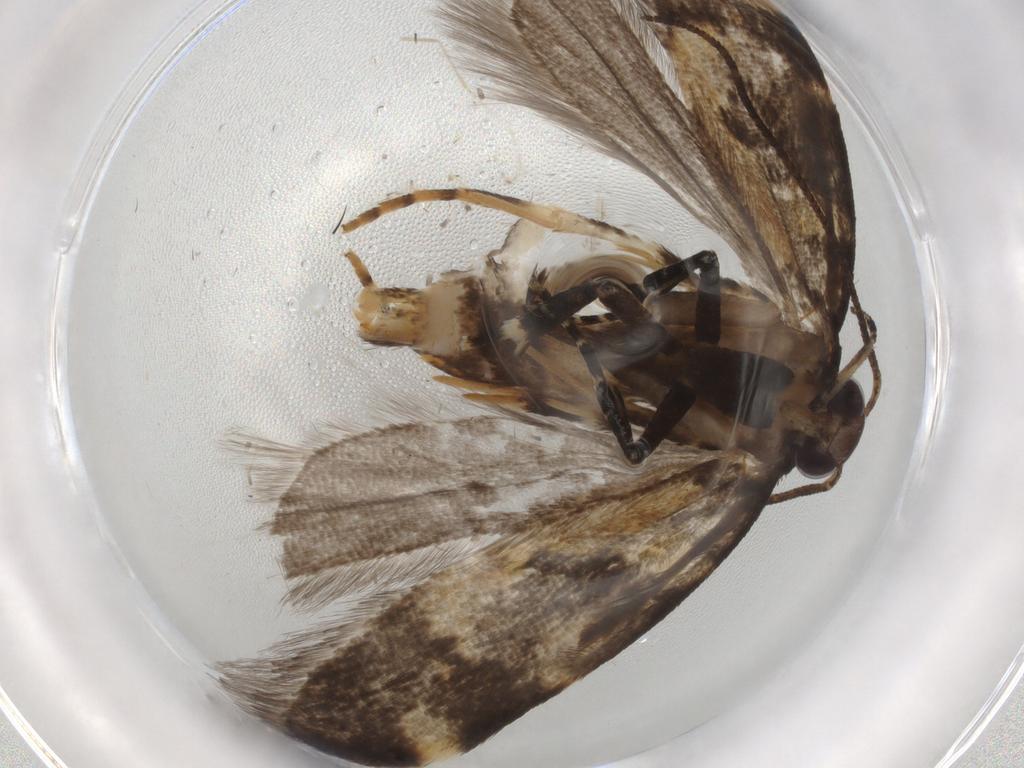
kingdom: Animalia
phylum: Arthropoda
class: Insecta
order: Lepidoptera
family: Gelechiidae
